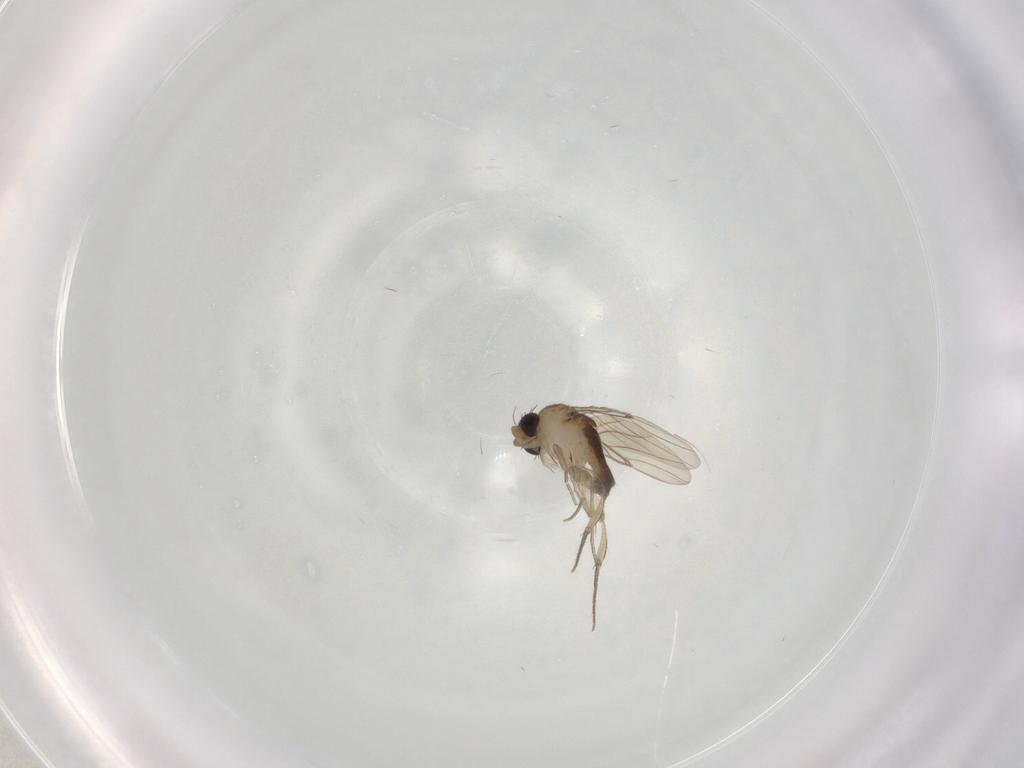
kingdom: Animalia
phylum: Arthropoda
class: Insecta
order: Diptera
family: Phoridae
